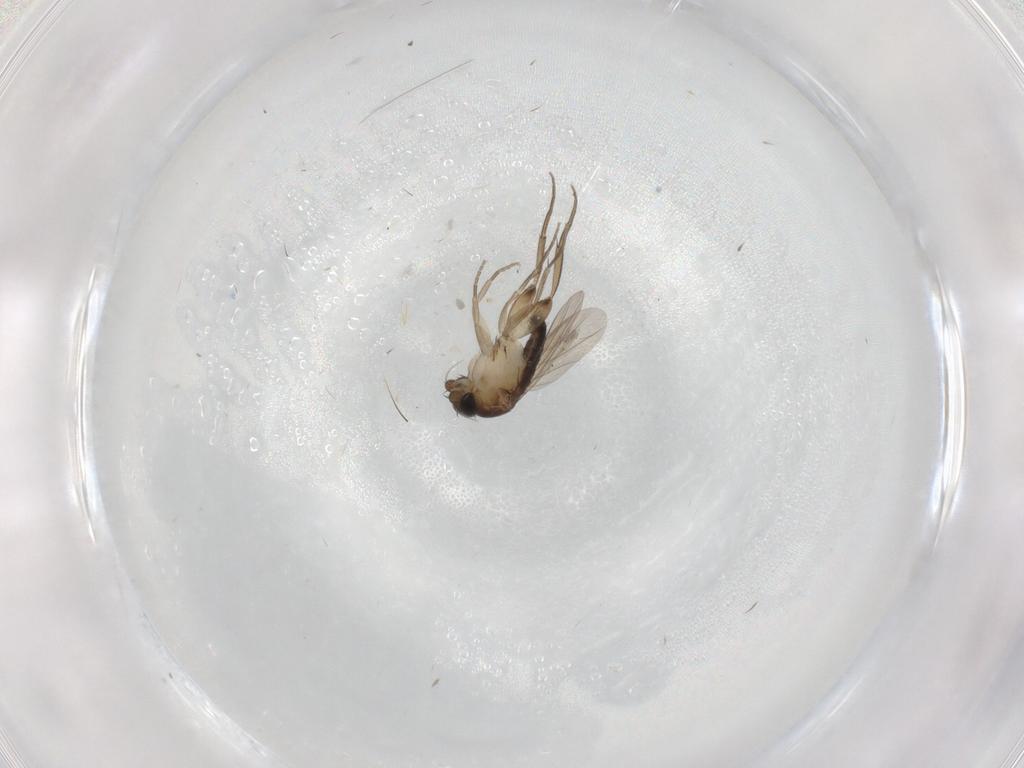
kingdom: Animalia
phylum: Arthropoda
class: Insecta
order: Diptera
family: Phoridae
